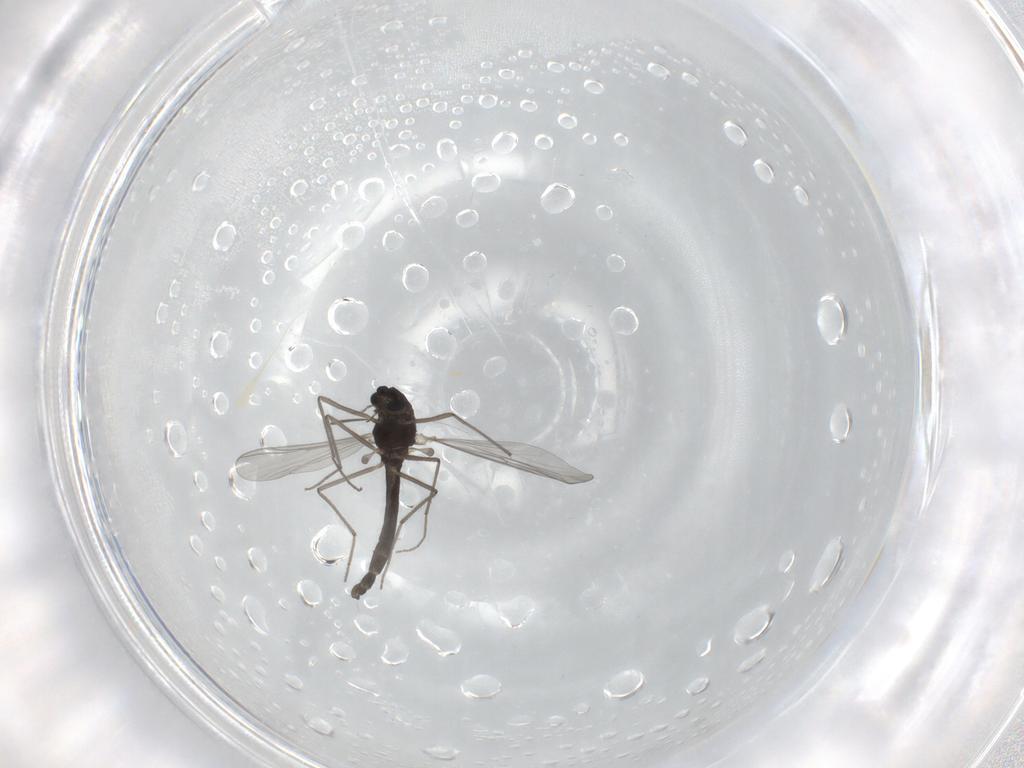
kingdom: Animalia
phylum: Arthropoda
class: Insecta
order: Diptera
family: Chironomidae
